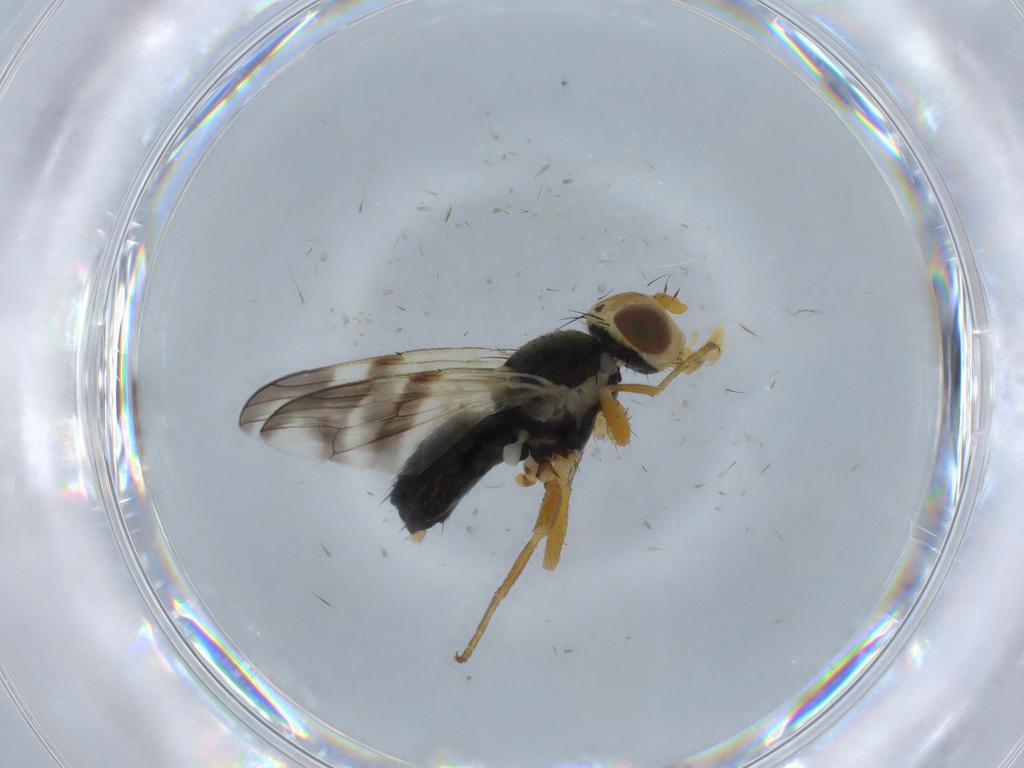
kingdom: Animalia
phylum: Arthropoda
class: Insecta
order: Diptera
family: Tephritidae
